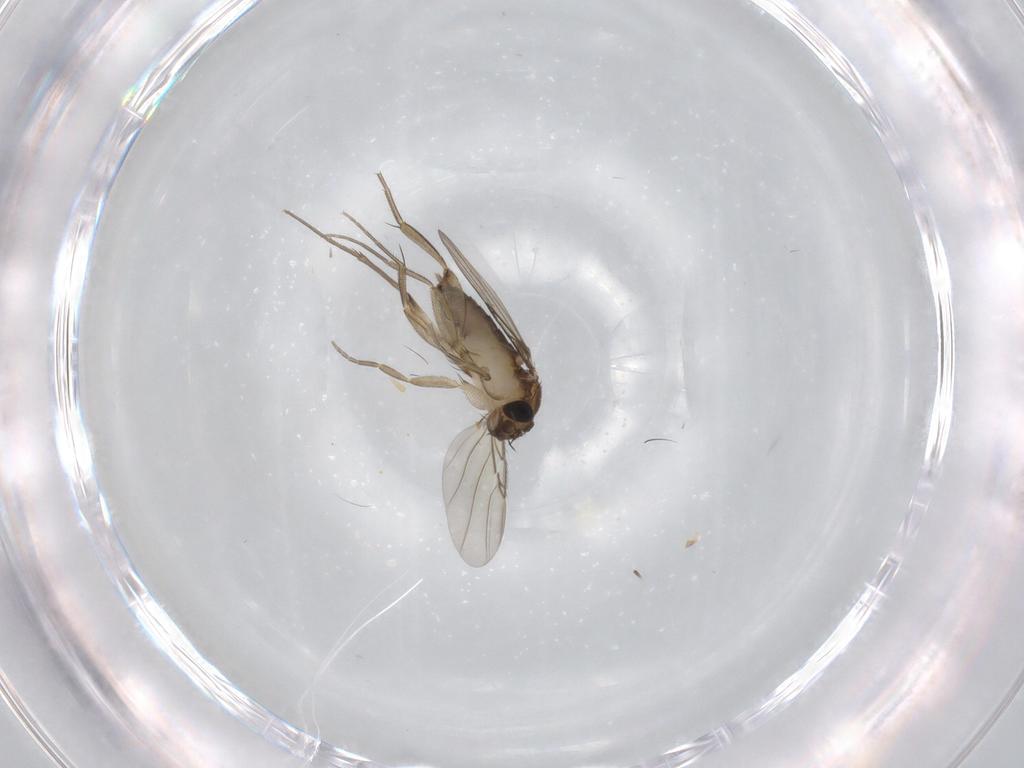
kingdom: Animalia
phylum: Arthropoda
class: Insecta
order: Diptera
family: Phoridae
